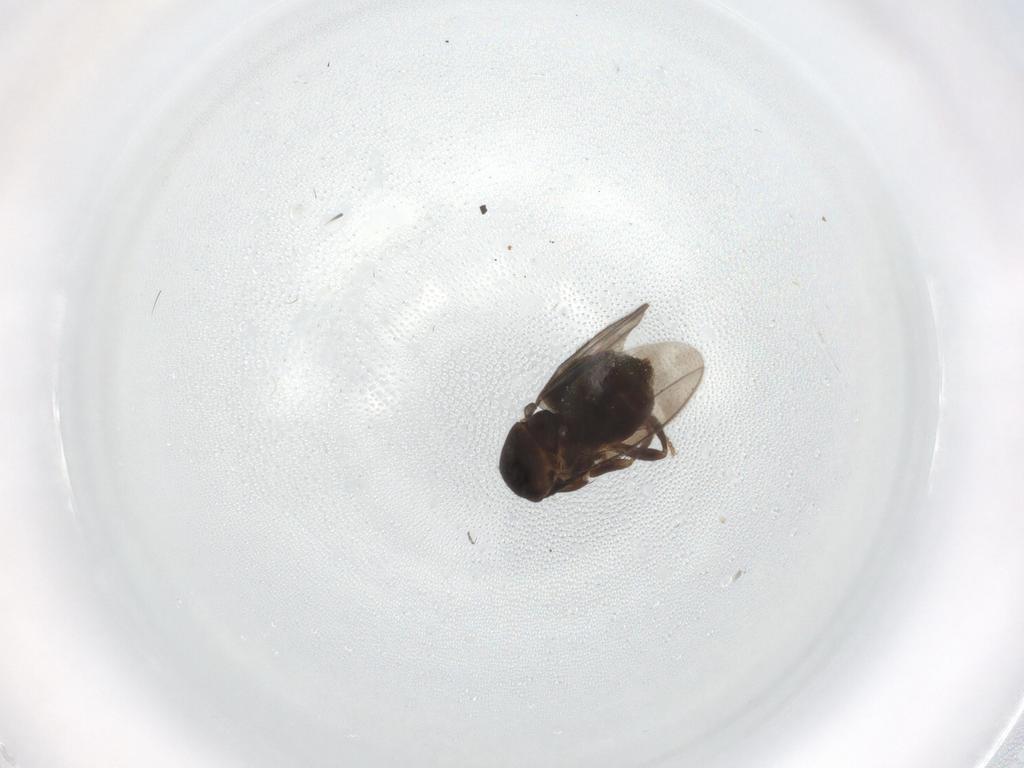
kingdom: Animalia
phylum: Arthropoda
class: Insecta
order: Diptera
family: Sphaeroceridae
